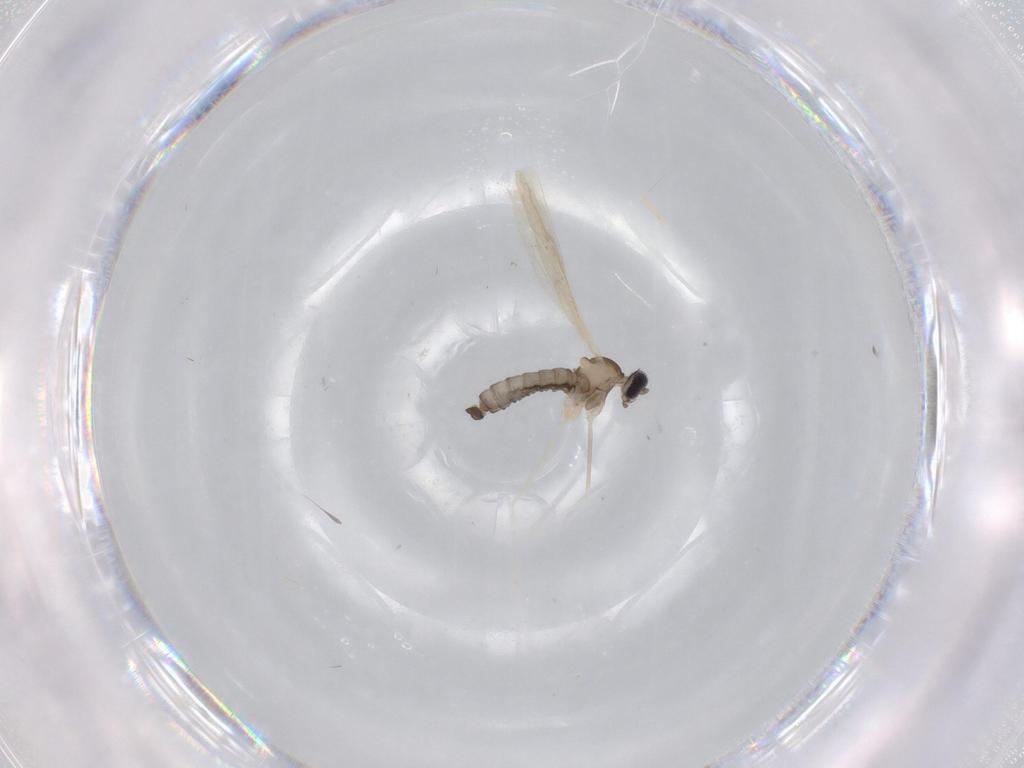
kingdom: Animalia
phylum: Arthropoda
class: Insecta
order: Diptera
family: Cecidomyiidae
